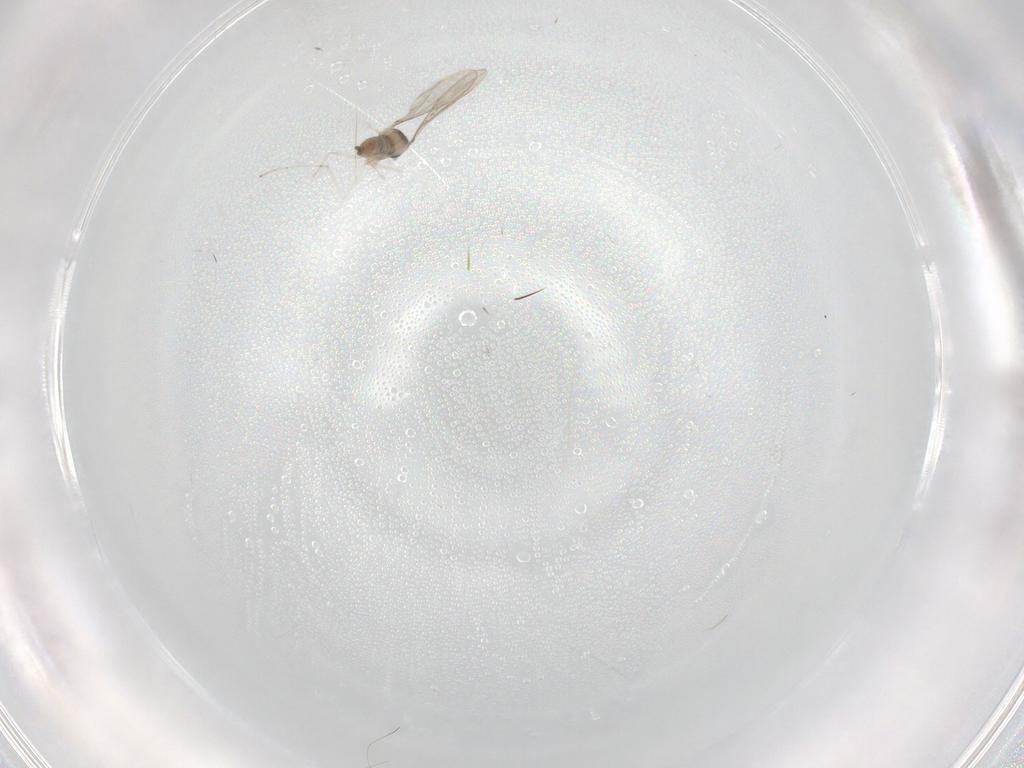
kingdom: Animalia
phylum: Arthropoda
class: Insecta
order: Diptera
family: Cecidomyiidae
